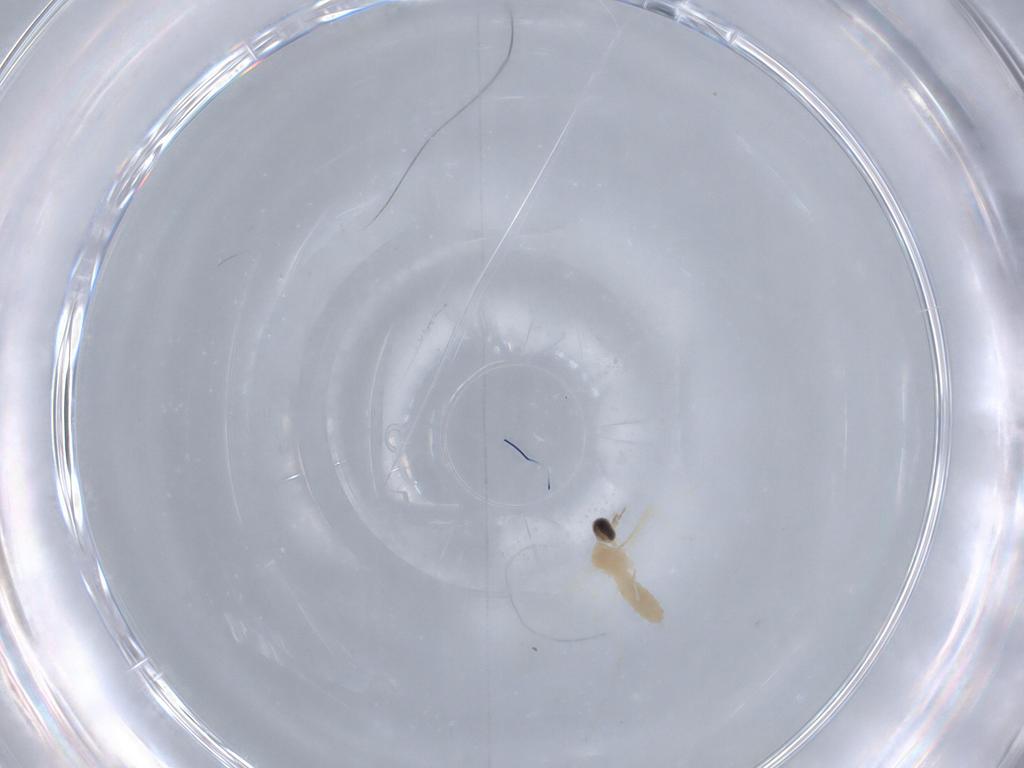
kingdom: Animalia
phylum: Arthropoda
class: Insecta
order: Diptera
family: Cecidomyiidae
